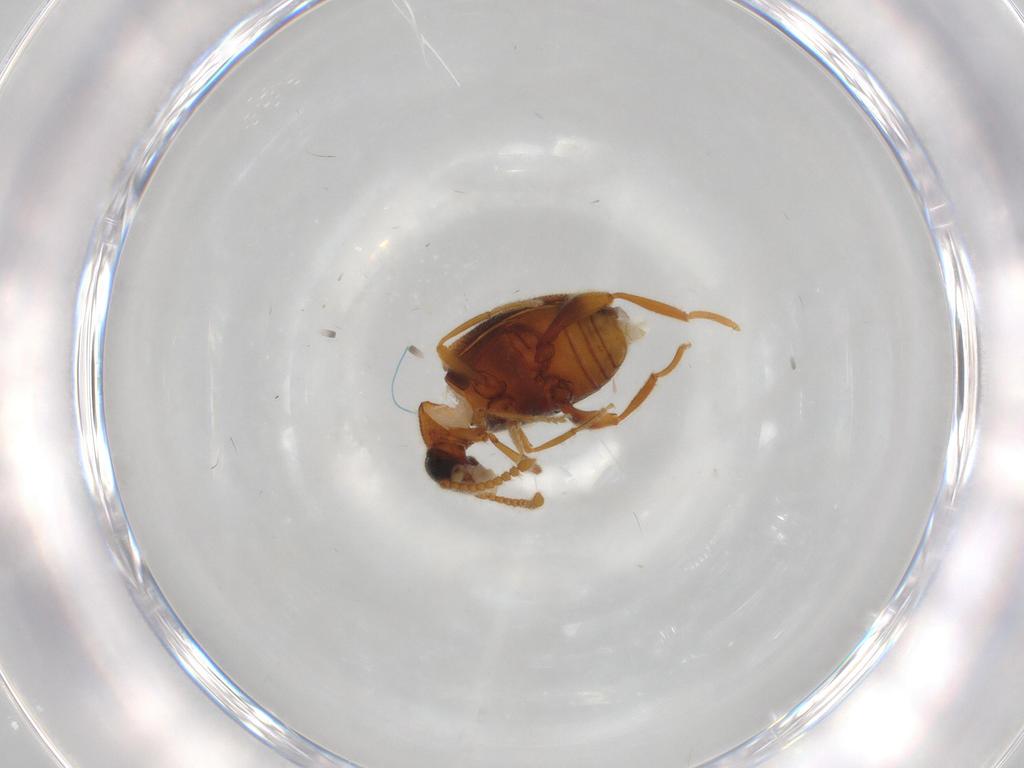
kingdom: Animalia
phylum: Arthropoda
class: Insecta
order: Coleoptera
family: Aderidae
